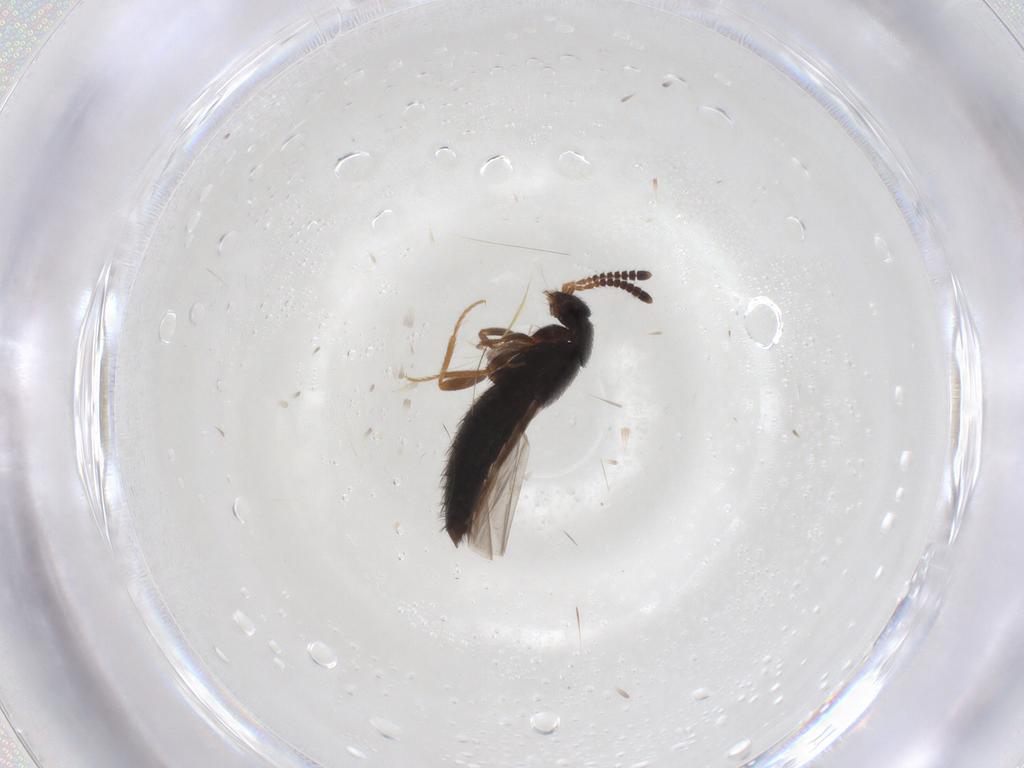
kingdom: Animalia
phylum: Arthropoda
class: Insecta
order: Coleoptera
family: Staphylinidae
